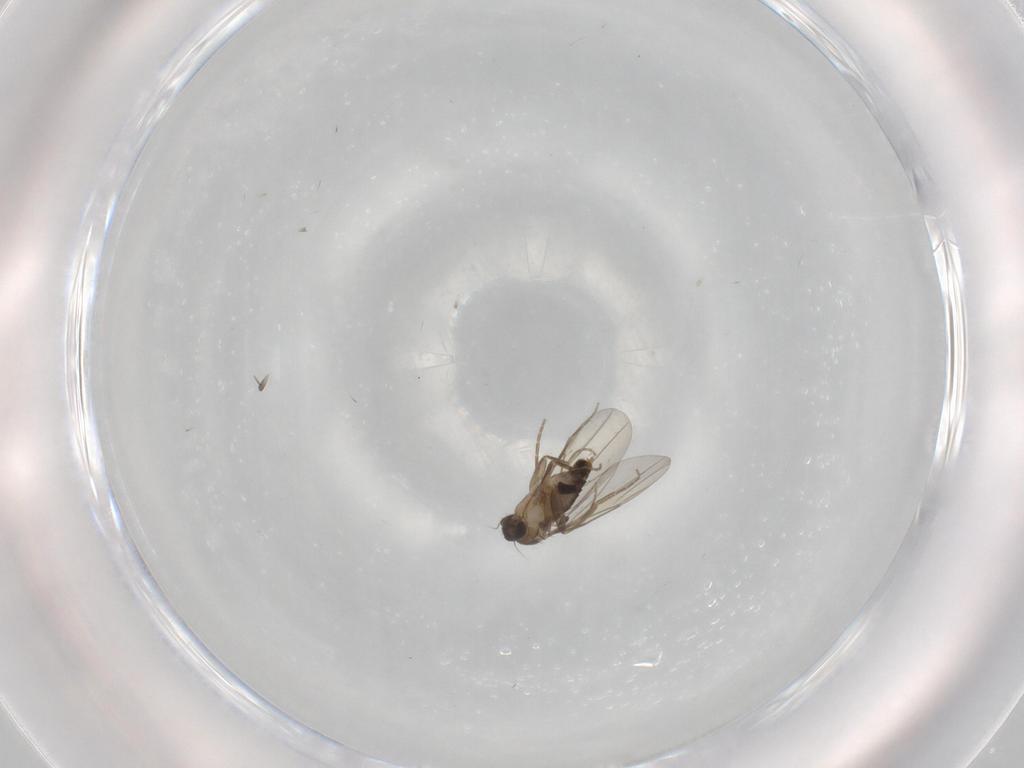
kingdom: Animalia
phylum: Arthropoda
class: Insecta
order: Diptera
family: Phoridae
